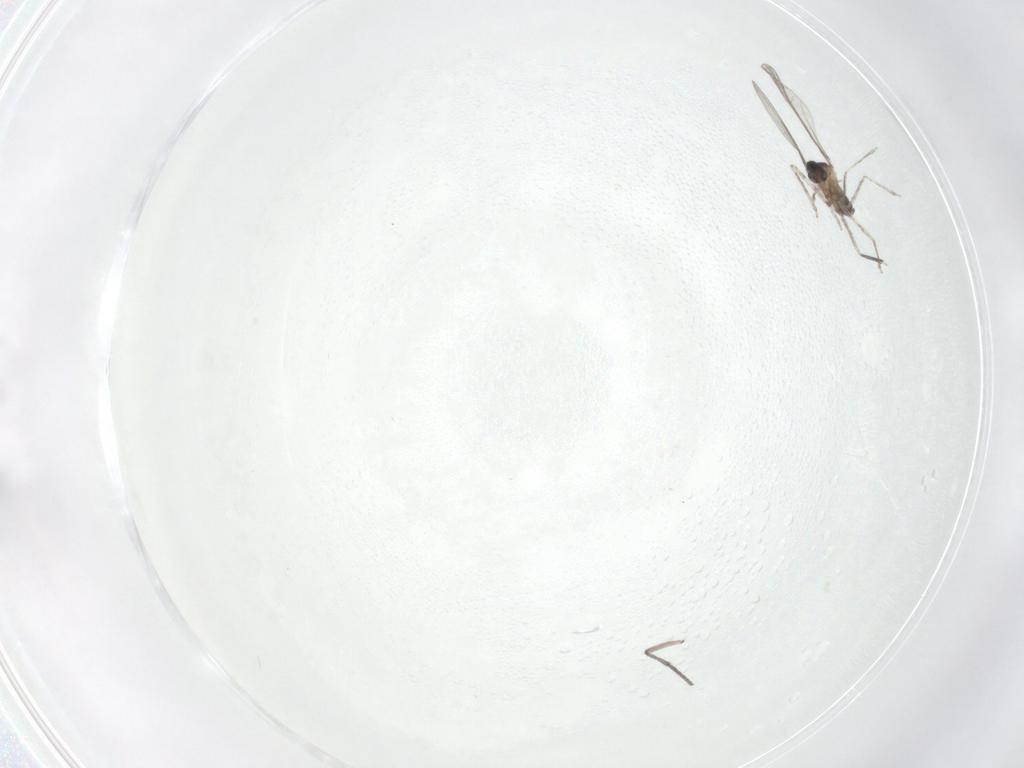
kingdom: Animalia
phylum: Arthropoda
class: Insecta
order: Diptera
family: Cecidomyiidae
